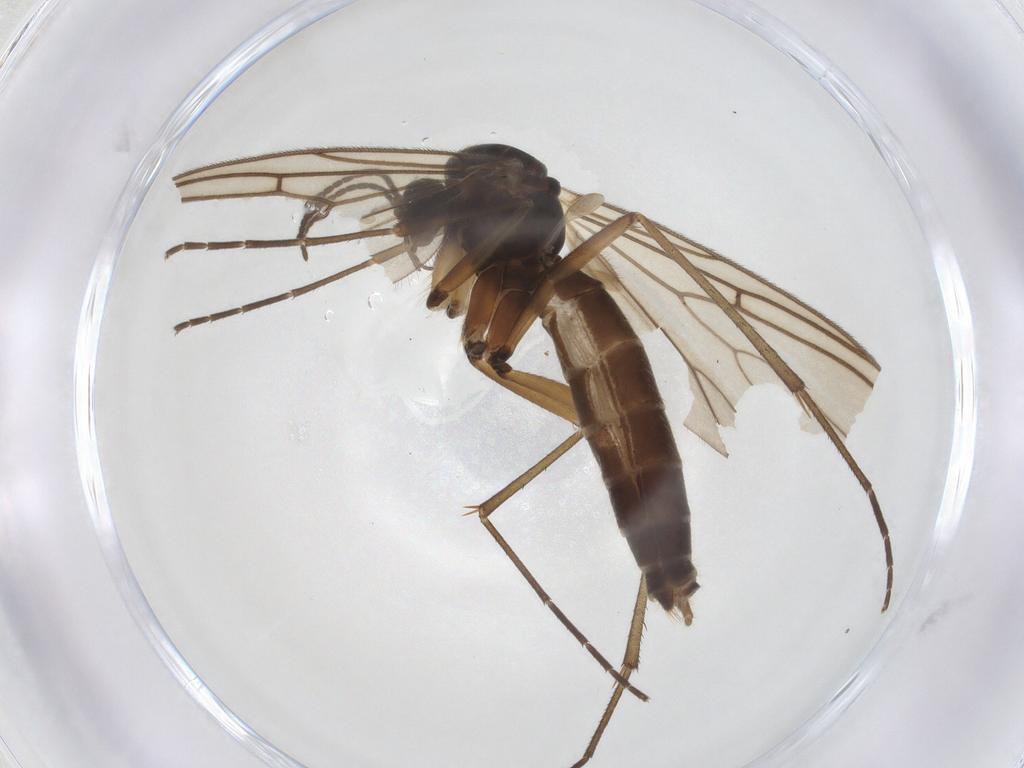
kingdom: Animalia
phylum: Arthropoda
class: Insecta
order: Diptera
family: Mycetophilidae
